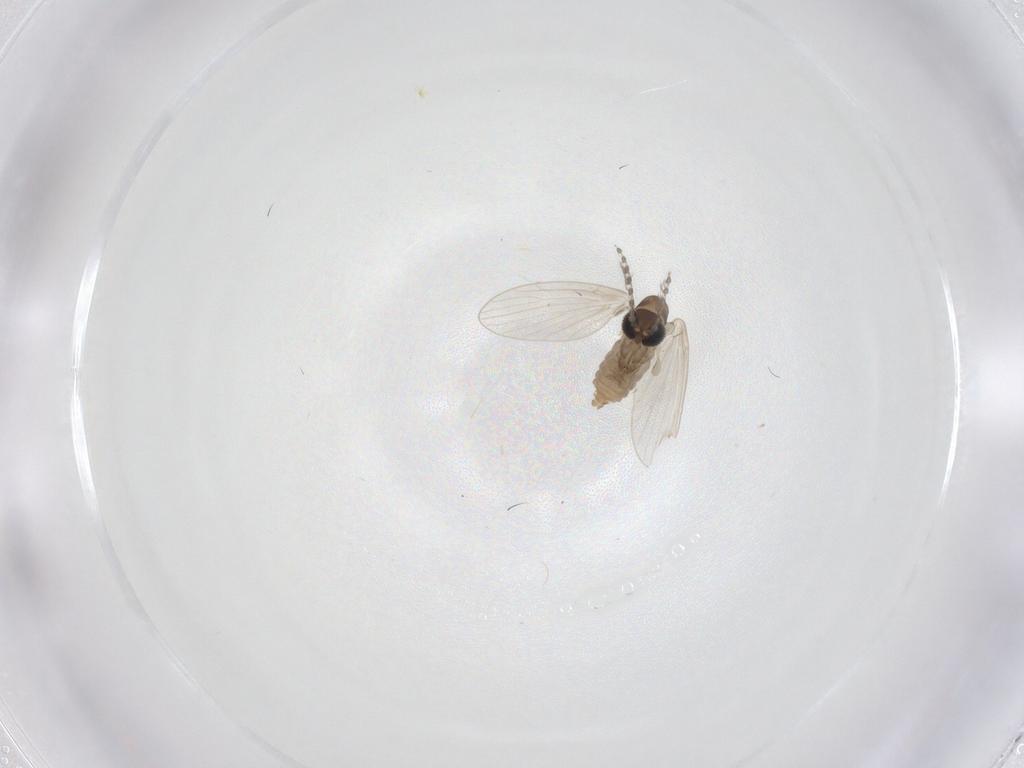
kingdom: Animalia
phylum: Arthropoda
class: Insecta
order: Diptera
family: Psychodidae
